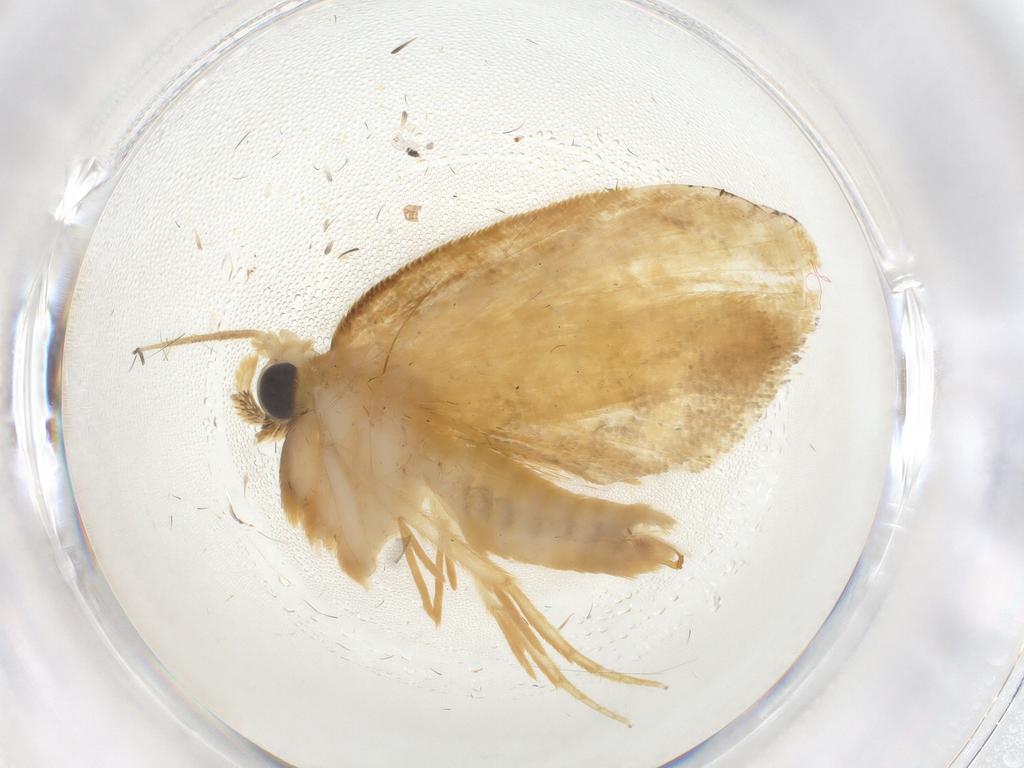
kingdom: Animalia
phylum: Arthropoda
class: Insecta
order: Lepidoptera
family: Psychidae
